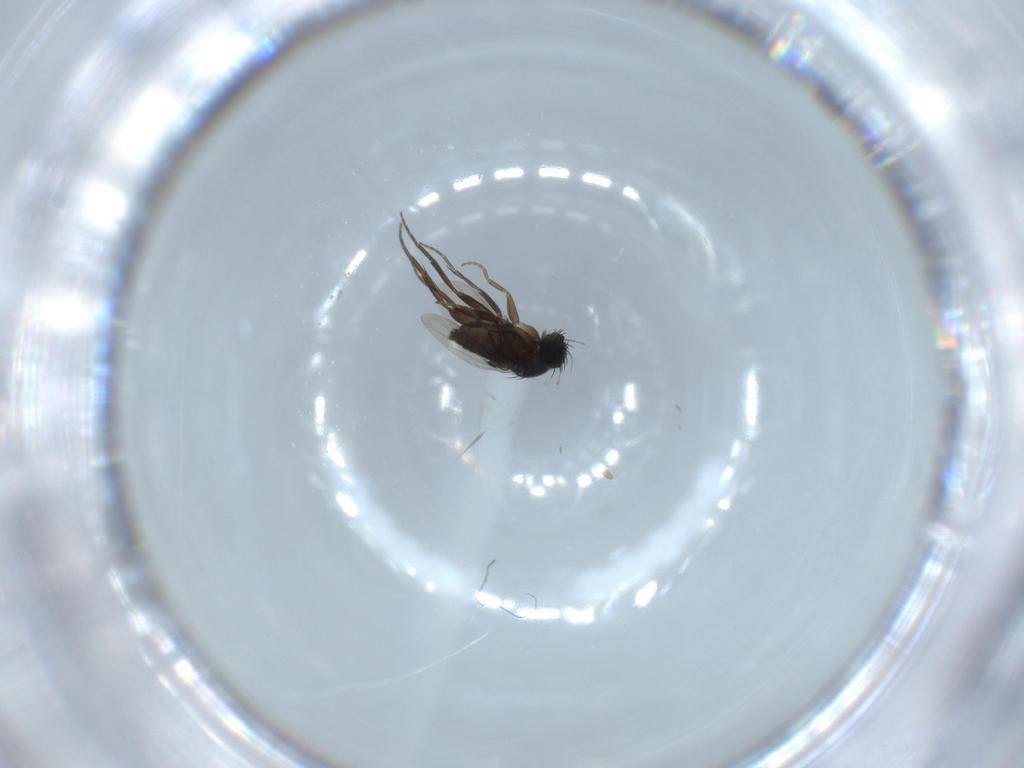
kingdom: Animalia
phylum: Arthropoda
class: Insecta
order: Diptera
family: Phoridae
